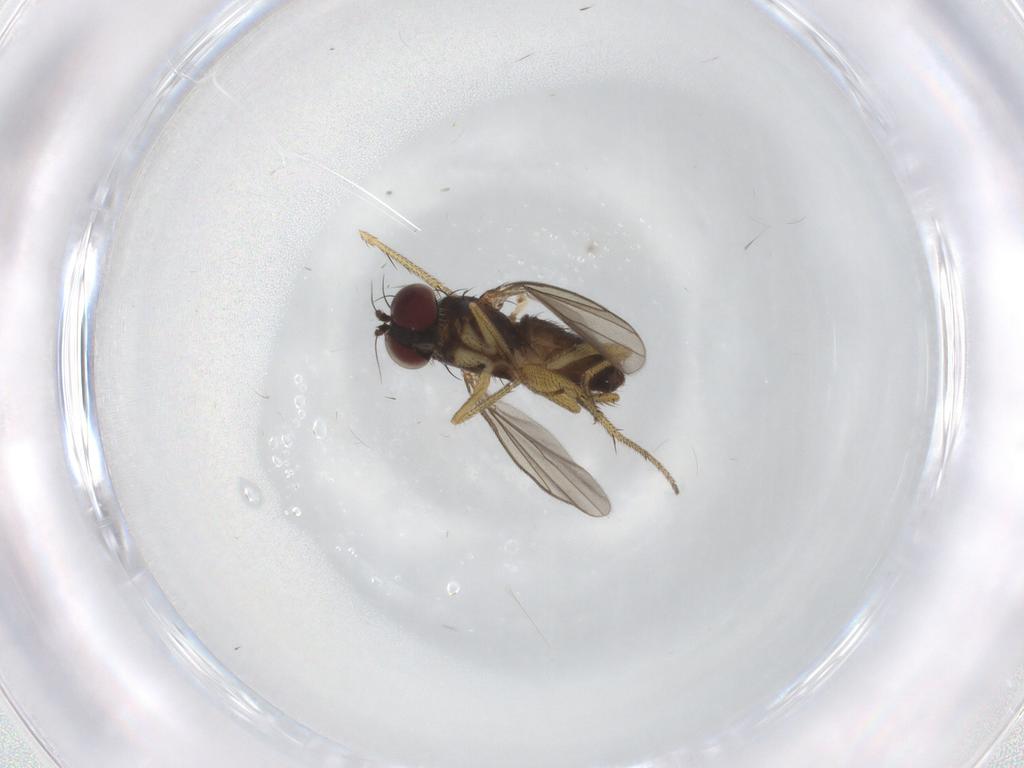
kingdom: Animalia
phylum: Arthropoda
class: Insecta
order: Diptera
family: Dolichopodidae
